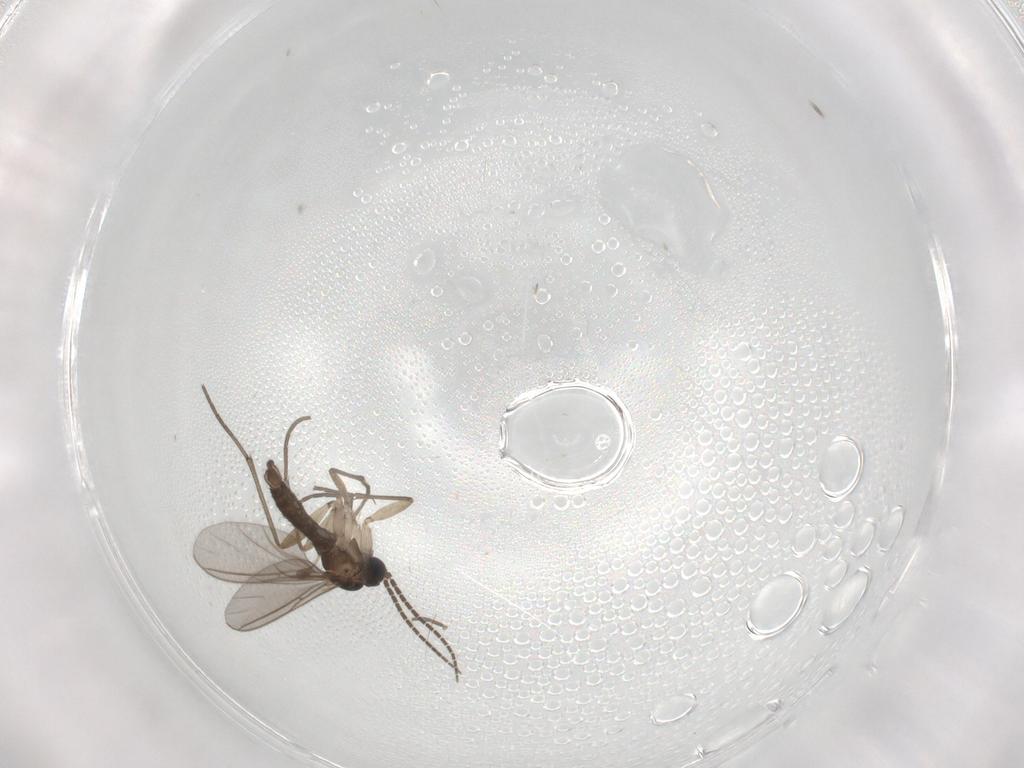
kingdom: Animalia
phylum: Arthropoda
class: Insecta
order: Diptera
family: Sciaridae
